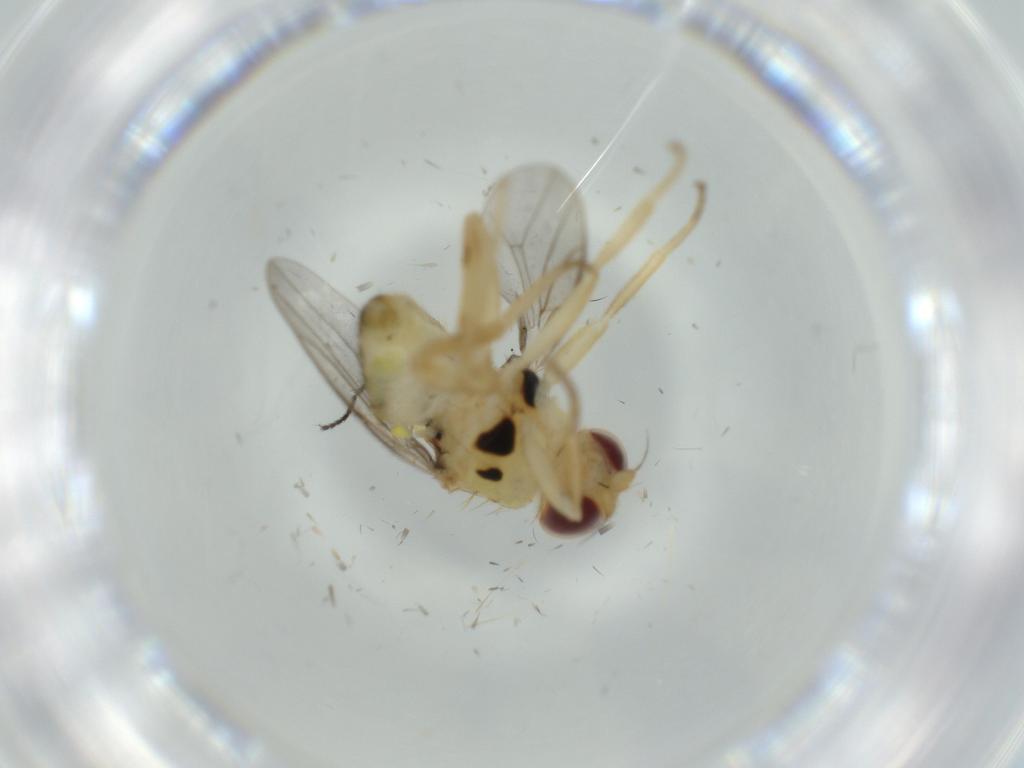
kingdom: Animalia
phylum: Arthropoda
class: Insecta
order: Diptera
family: Chloropidae
